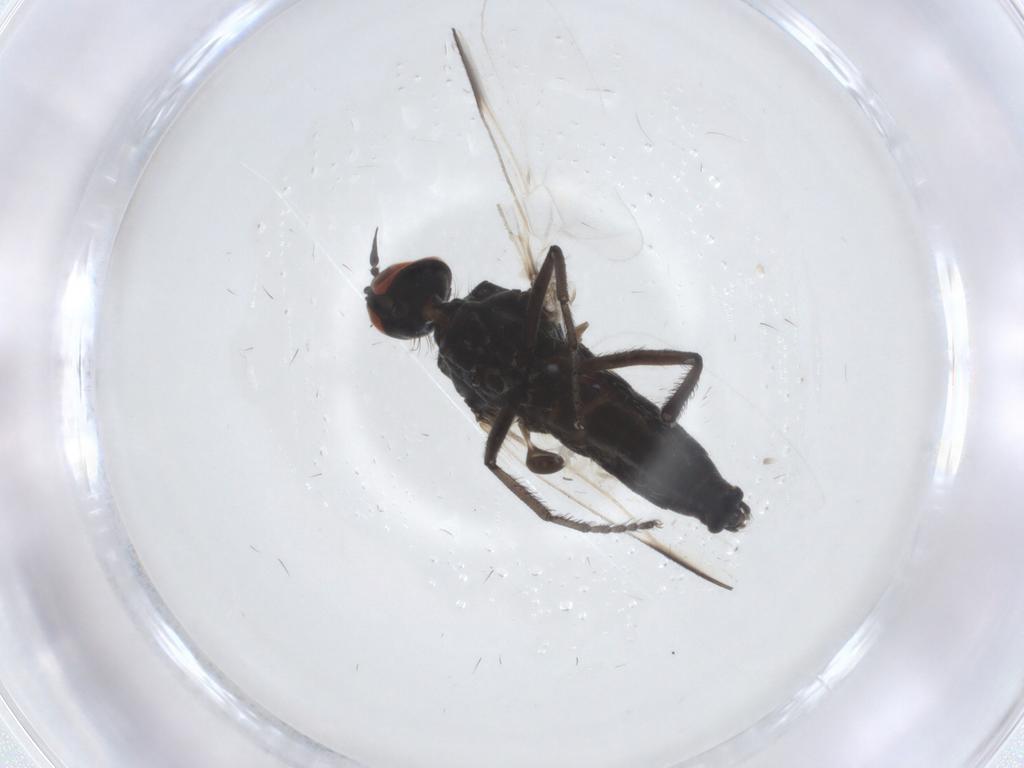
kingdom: Animalia
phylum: Arthropoda
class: Insecta
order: Diptera
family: Empididae
